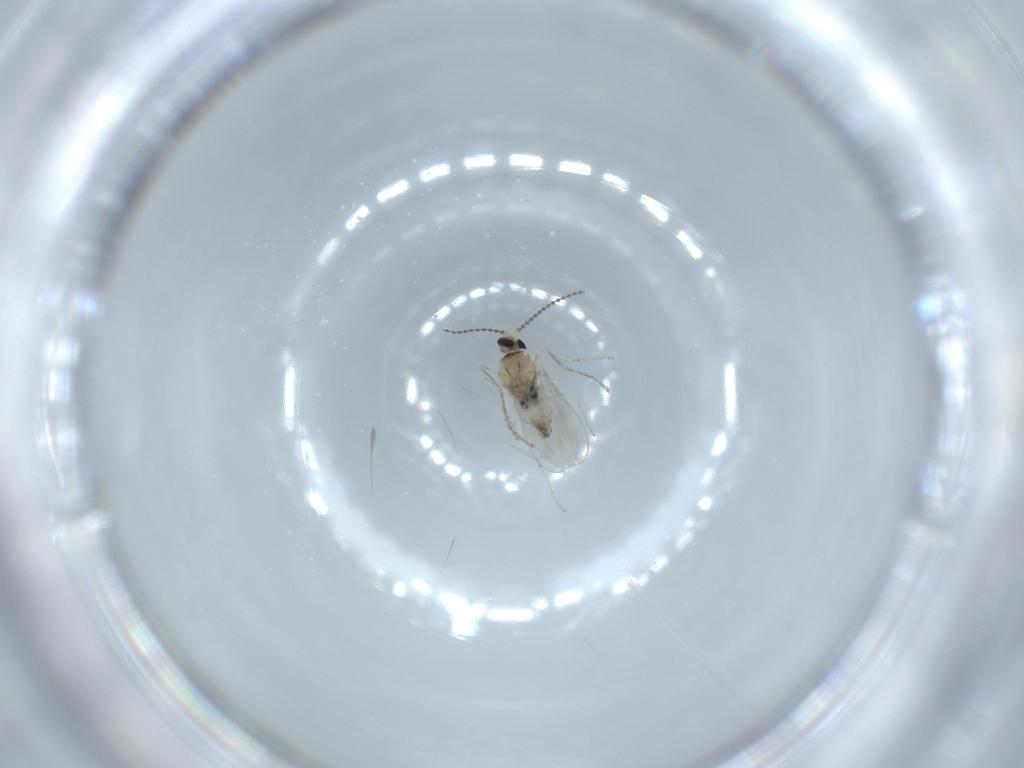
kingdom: Animalia
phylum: Arthropoda
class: Insecta
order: Diptera
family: Cecidomyiidae
